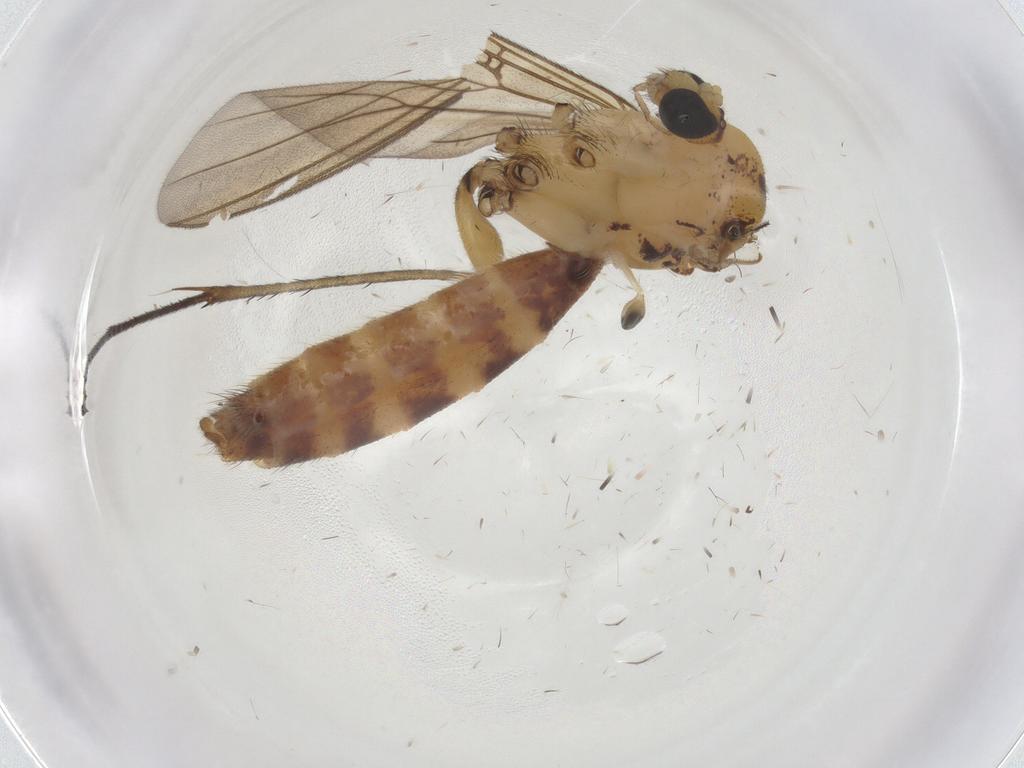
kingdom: Animalia
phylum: Arthropoda
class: Insecta
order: Diptera
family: Mycetophilidae
